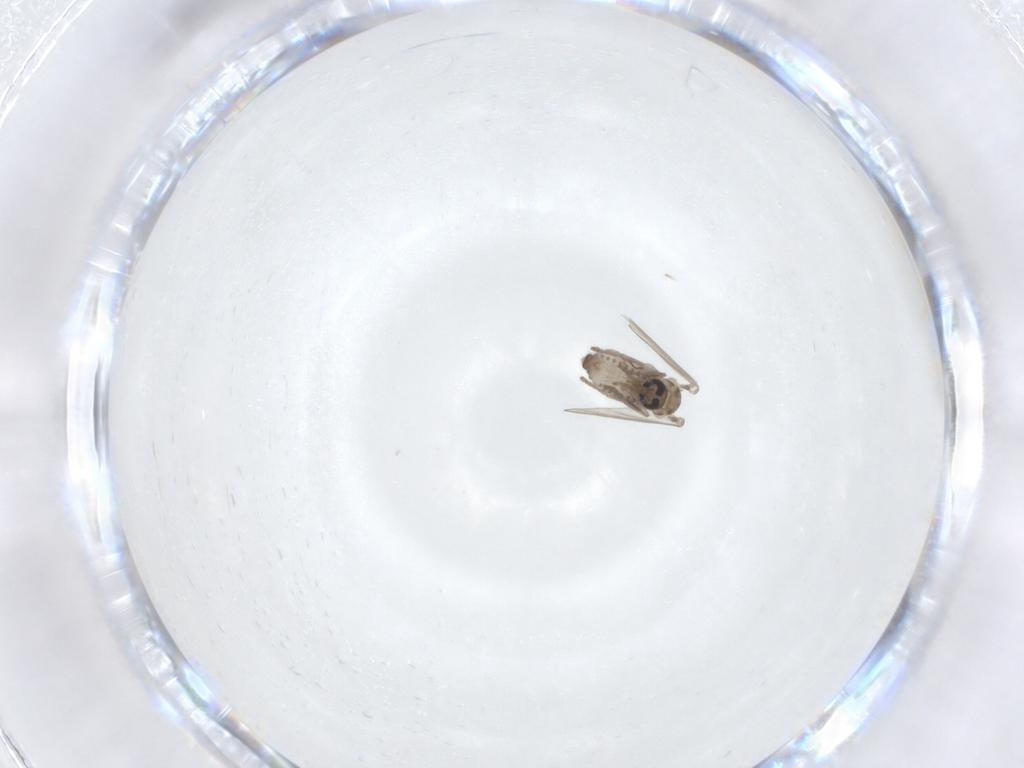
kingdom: Animalia
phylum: Arthropoda
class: Insecta
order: Diptera
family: Psychodidae
